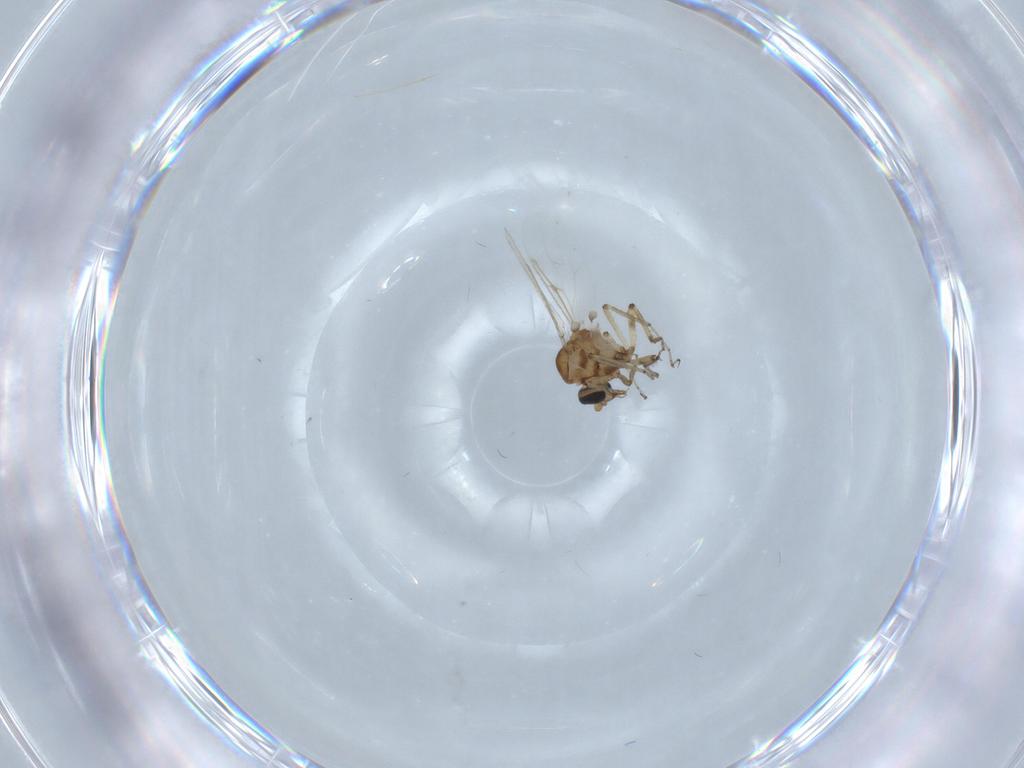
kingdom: Animalia
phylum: Arthropoda
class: Insecta
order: Diptera
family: Ceratopogonidae
